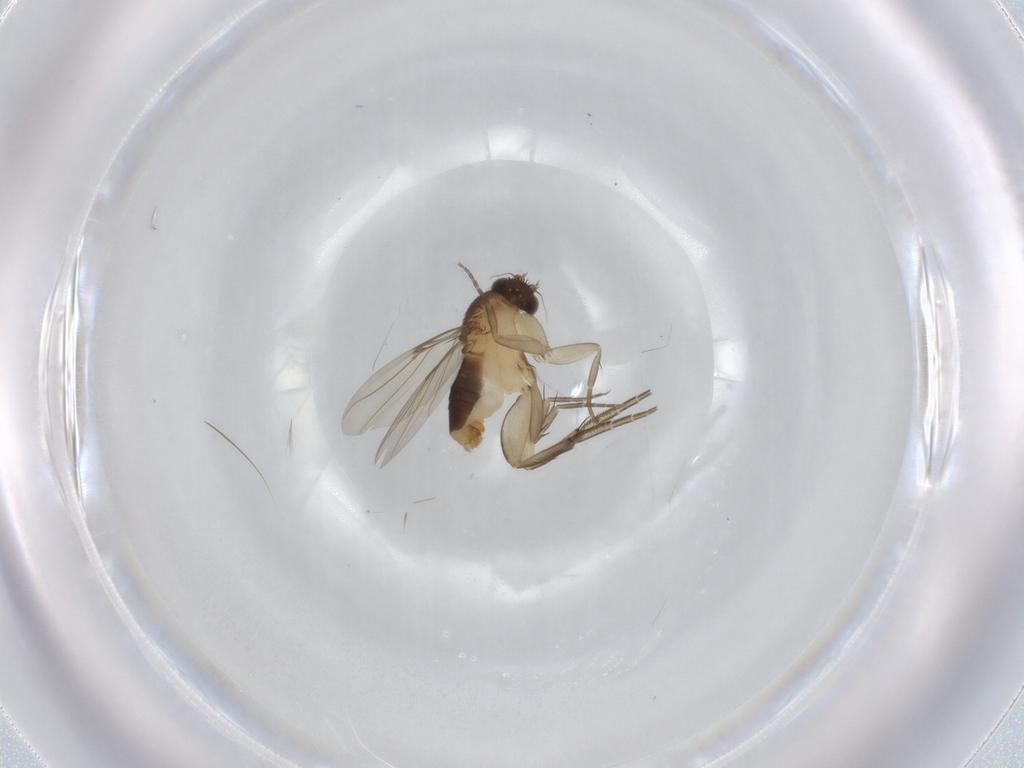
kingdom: Animalia
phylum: Arthropoda
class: Insecta
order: Diptera
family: Phoridae
